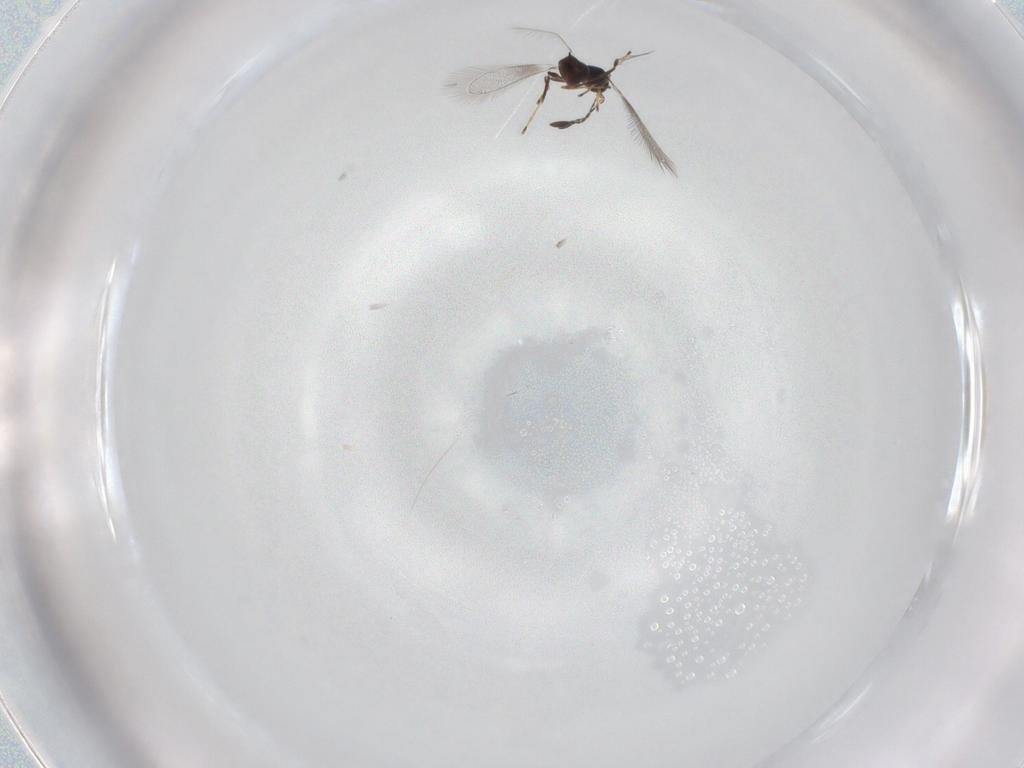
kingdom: Animalia
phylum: Arthropoda
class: Insecta
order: Hymenoptera
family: Mymaridae
